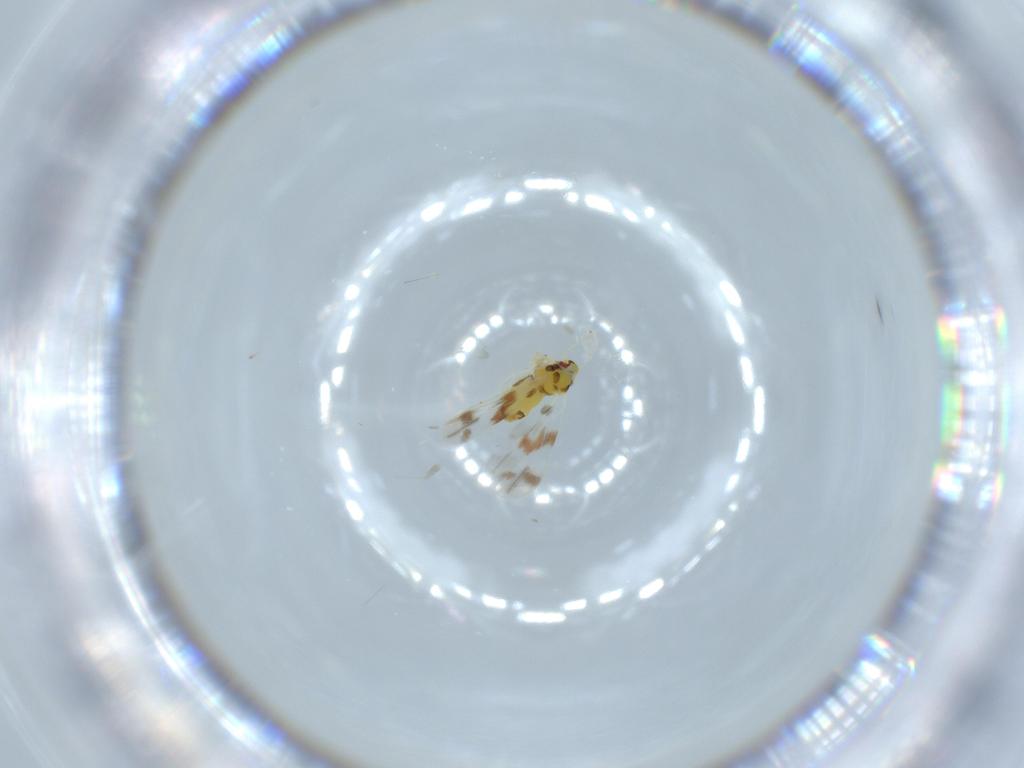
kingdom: Animalia
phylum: Arthropoda
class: Insecta
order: Hemiptera
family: Aleyrodidae
